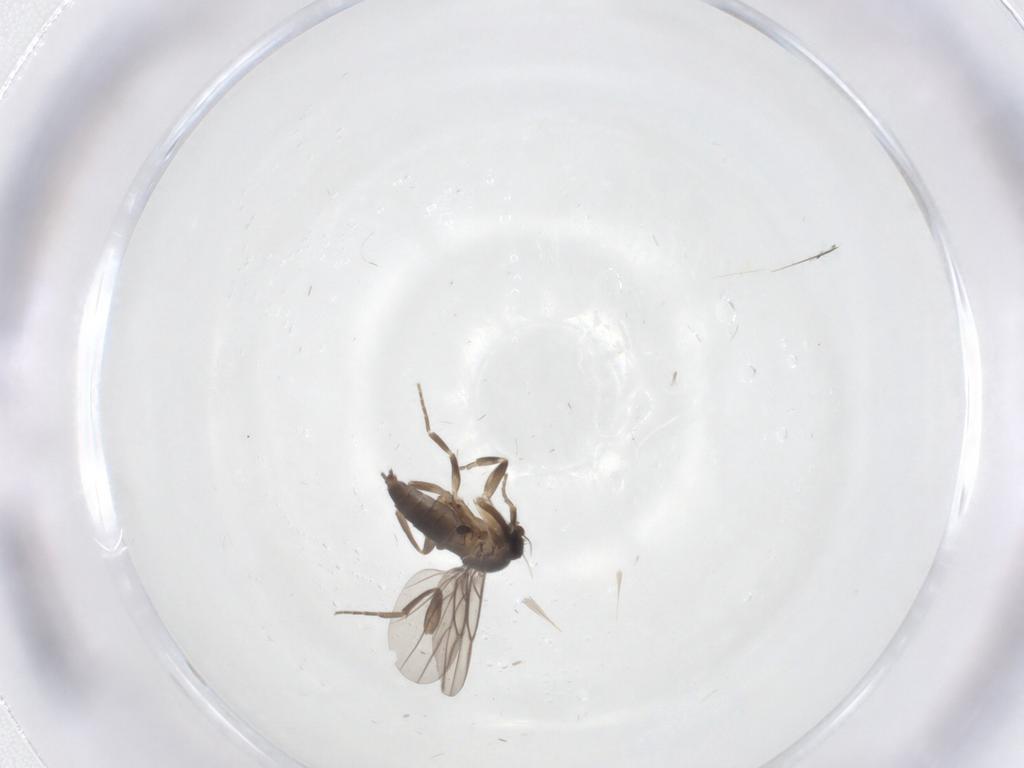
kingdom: Animalia
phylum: Arthropoda
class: Insecta
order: Diptera
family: Phoridae
